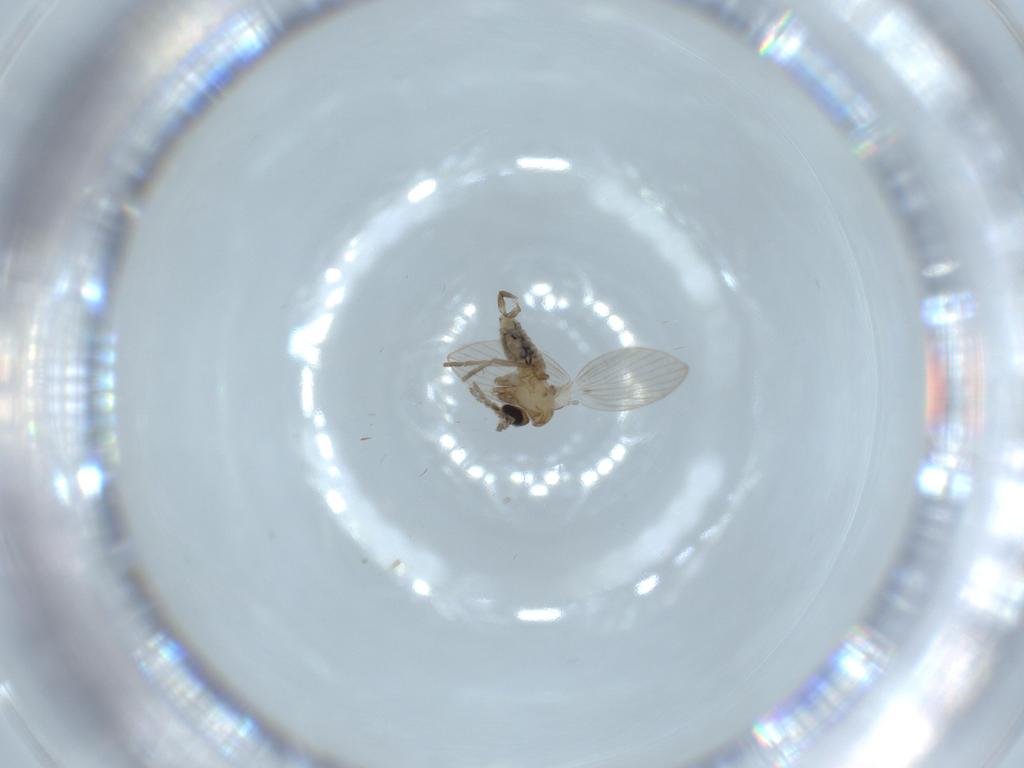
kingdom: Animalia
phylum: Arthropoda
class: Insecta
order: Diptera
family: Psychodidae
